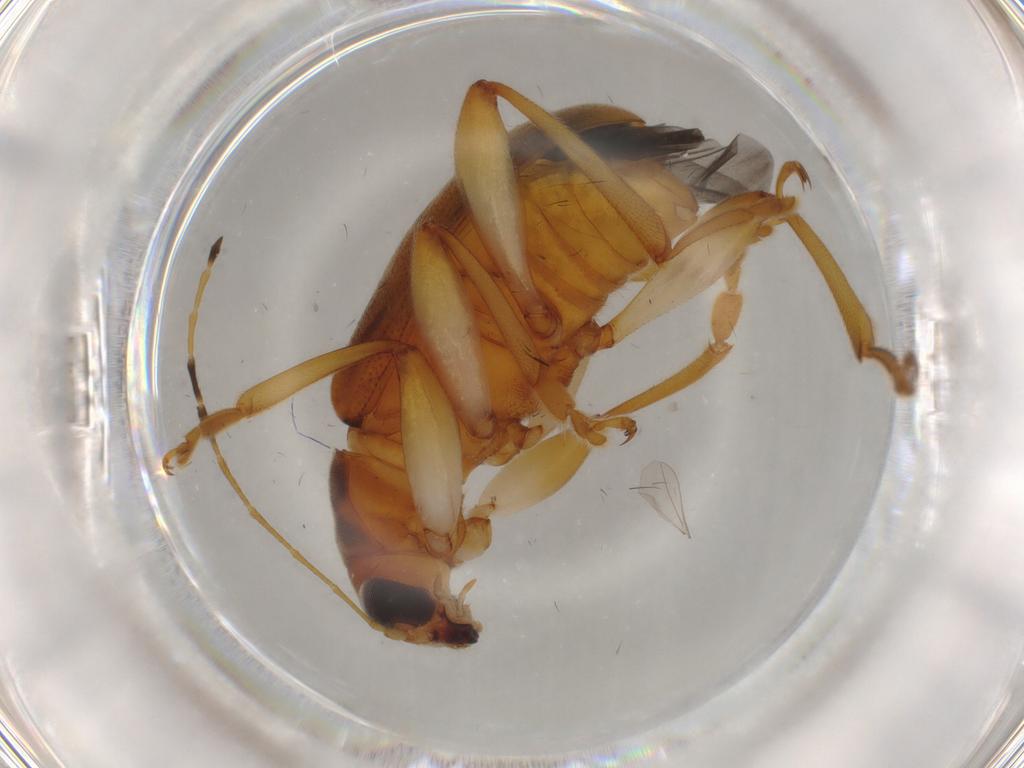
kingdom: Animalia
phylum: Arthropoda
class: Insecta
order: Coleoptera
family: Chrysomelidae
